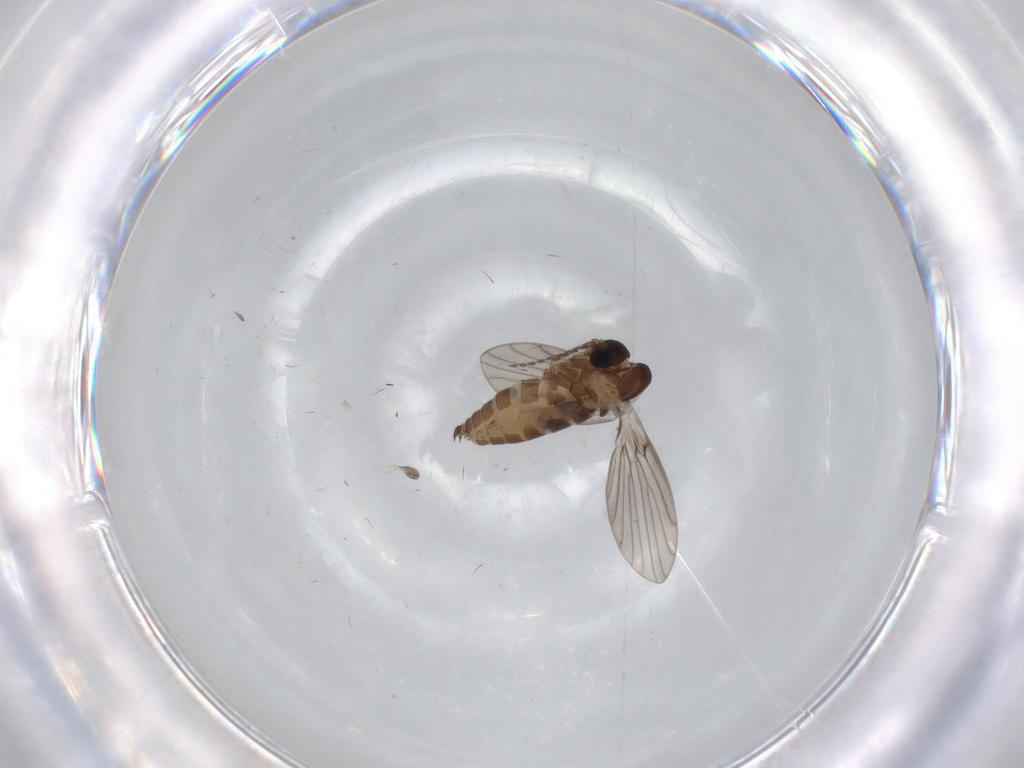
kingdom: Animalia
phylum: Arthropoda
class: Insecta
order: Diptera
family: Psychodidae
